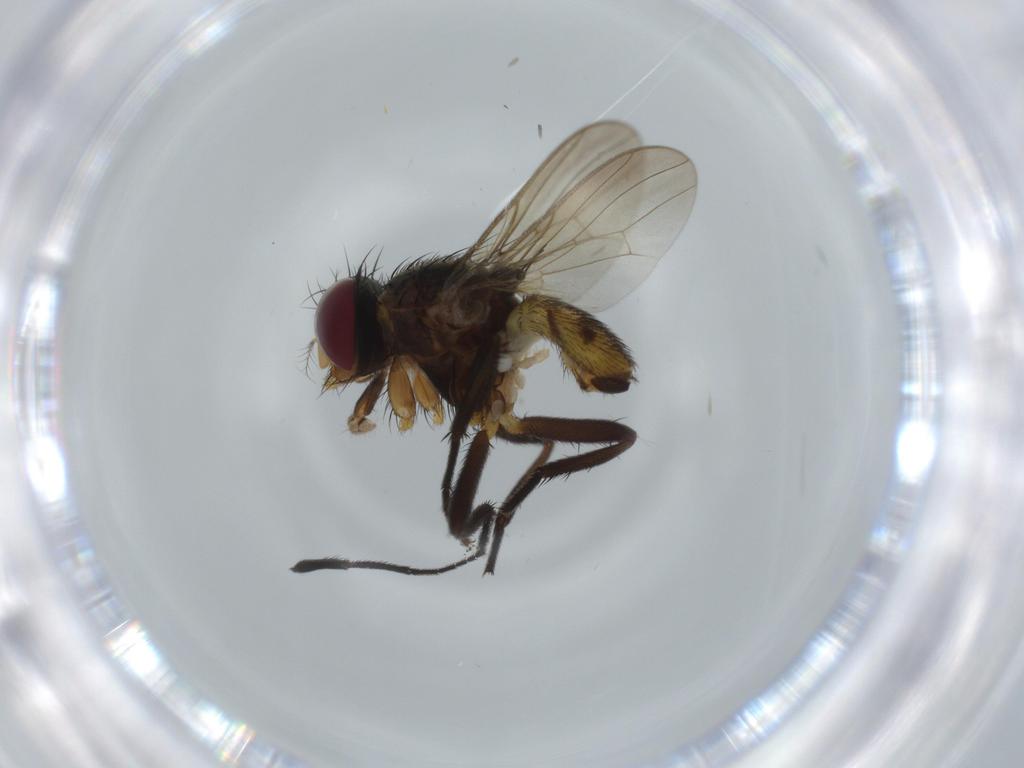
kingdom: Animalia
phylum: Arthropoda
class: Insecta
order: Diptera
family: Anthomyiidae
